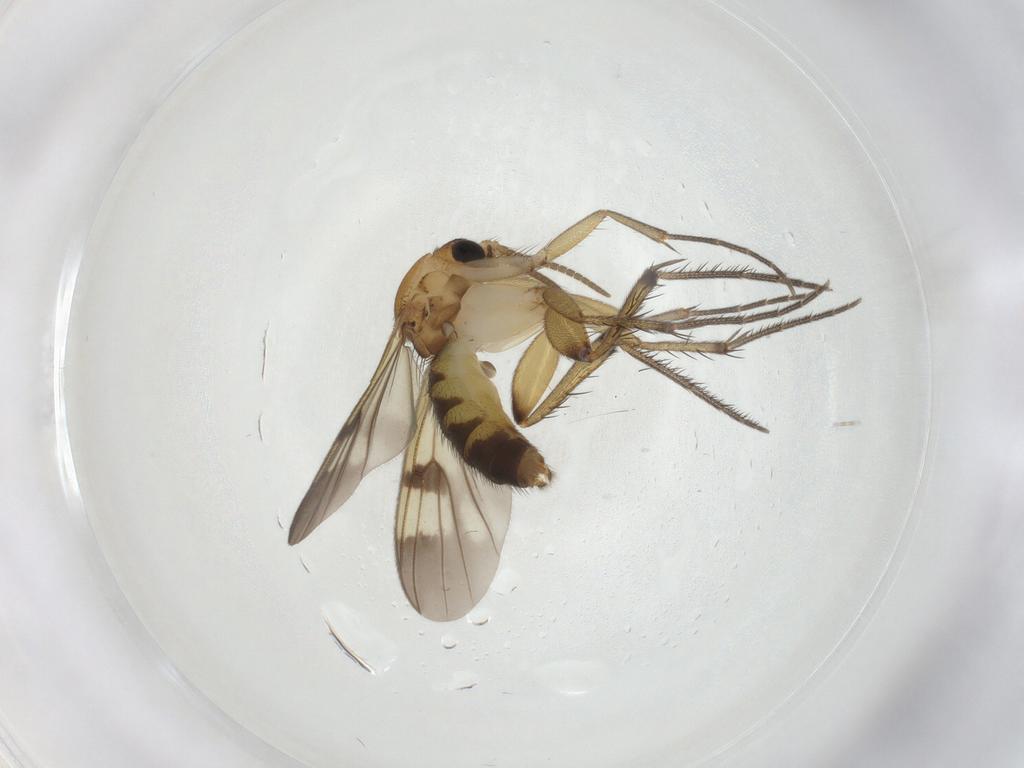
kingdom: Animalia
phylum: Arthropoda
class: Insecta
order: Diptera
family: Mycetophilidae
